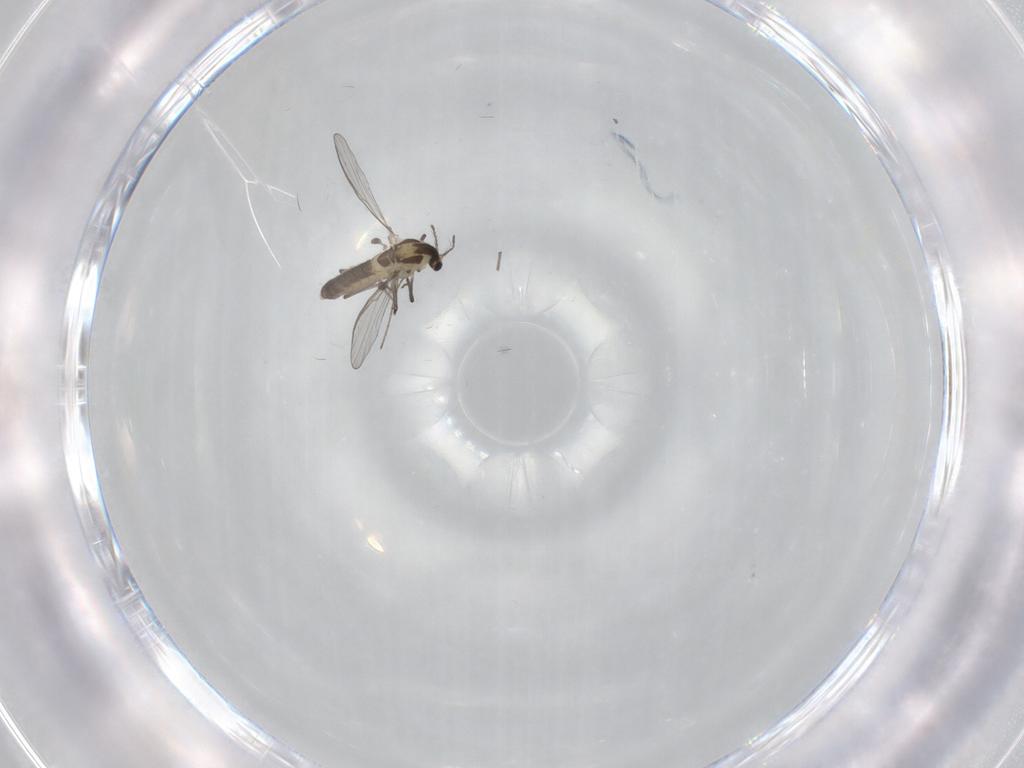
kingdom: Animalia
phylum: Arthropoda
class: Insecta
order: Diptera
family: Chironomidae
